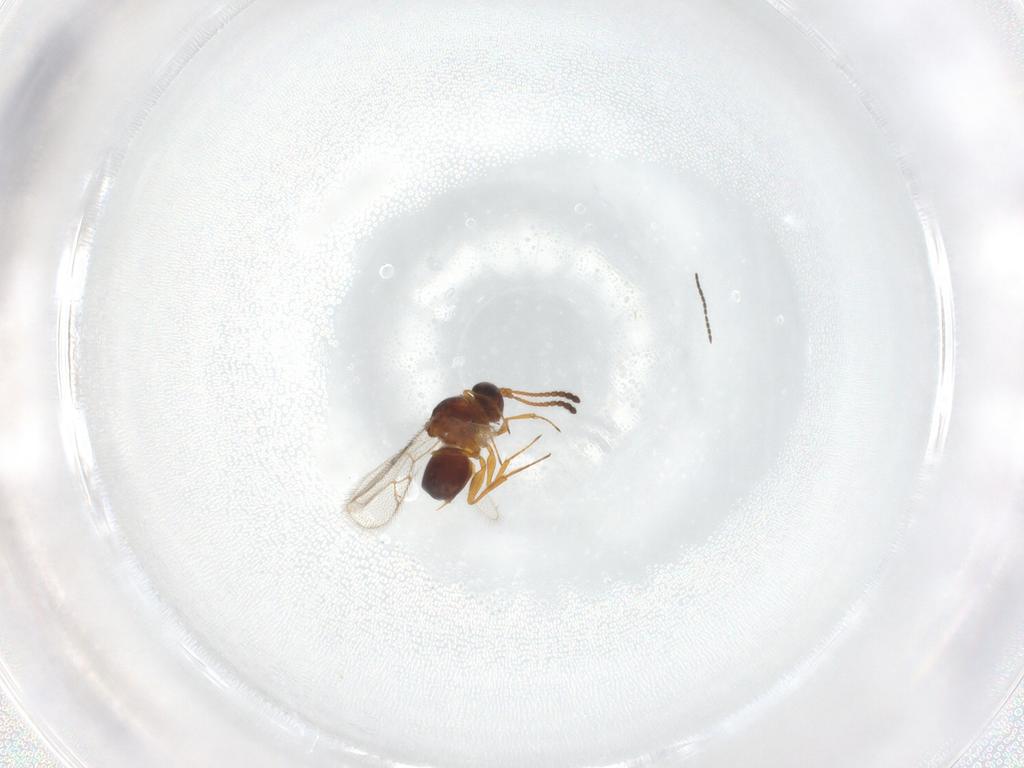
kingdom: Animalia
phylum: Arthropoda
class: Insecta
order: Hymenoptera
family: Scelionidae
